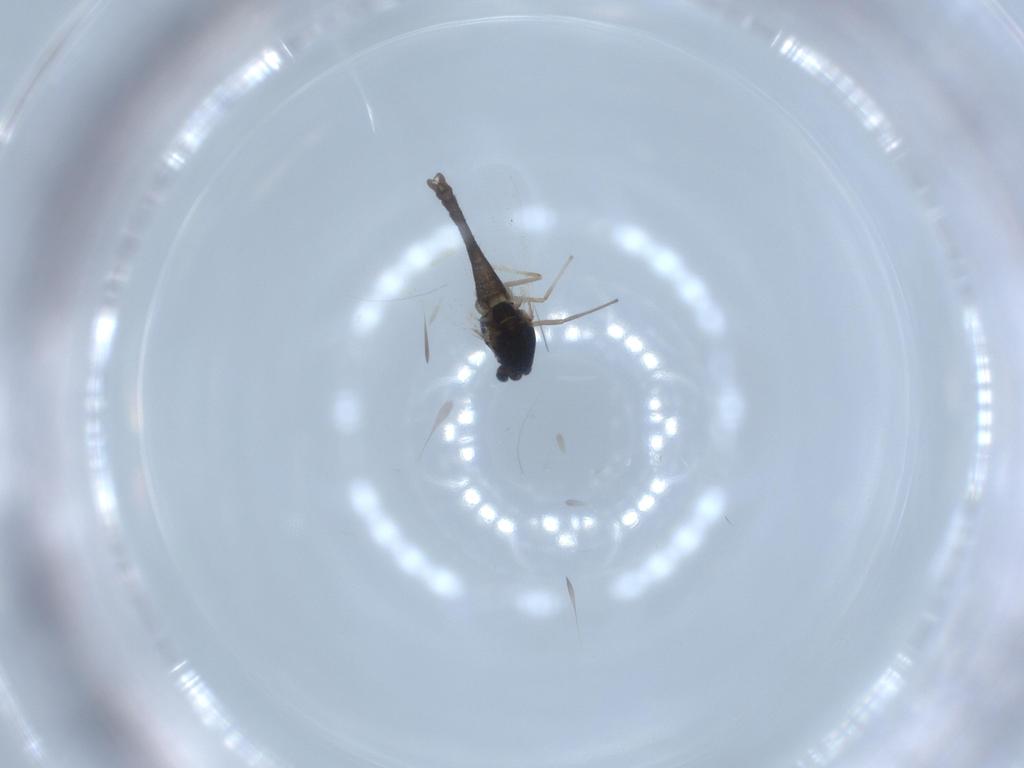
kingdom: Animalia
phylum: Arthropoda
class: Insecta
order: Diptera
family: Chironomidae
